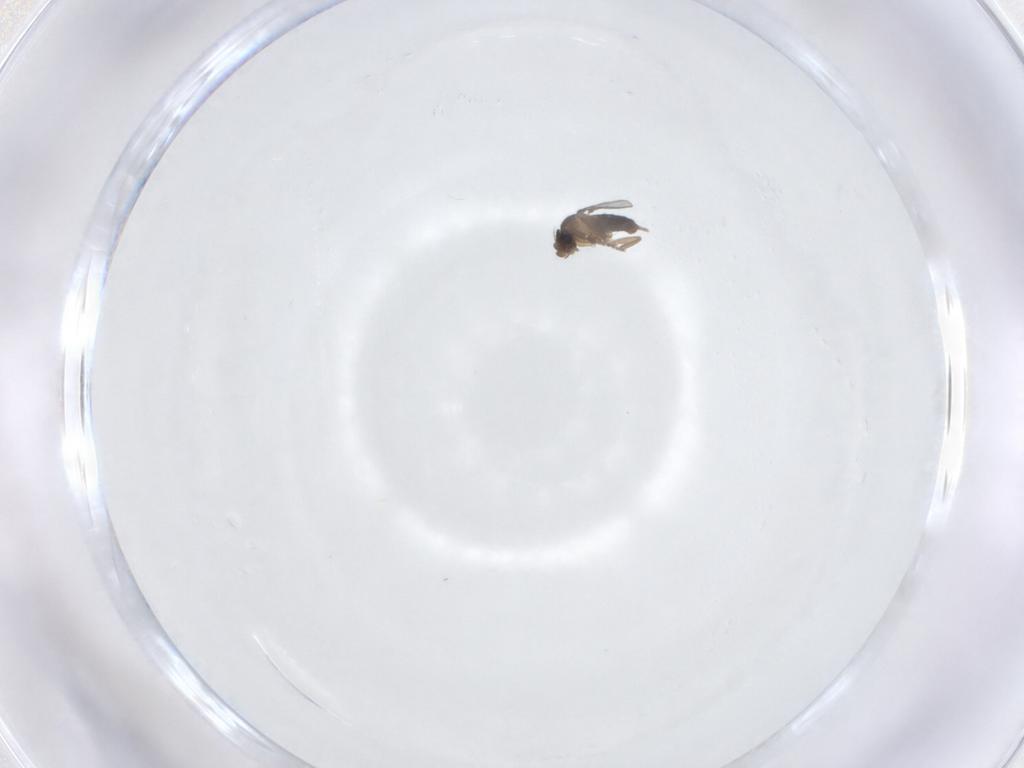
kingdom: Animalia
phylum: Arthropoda
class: Insecta
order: Diptera
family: Phoridae
